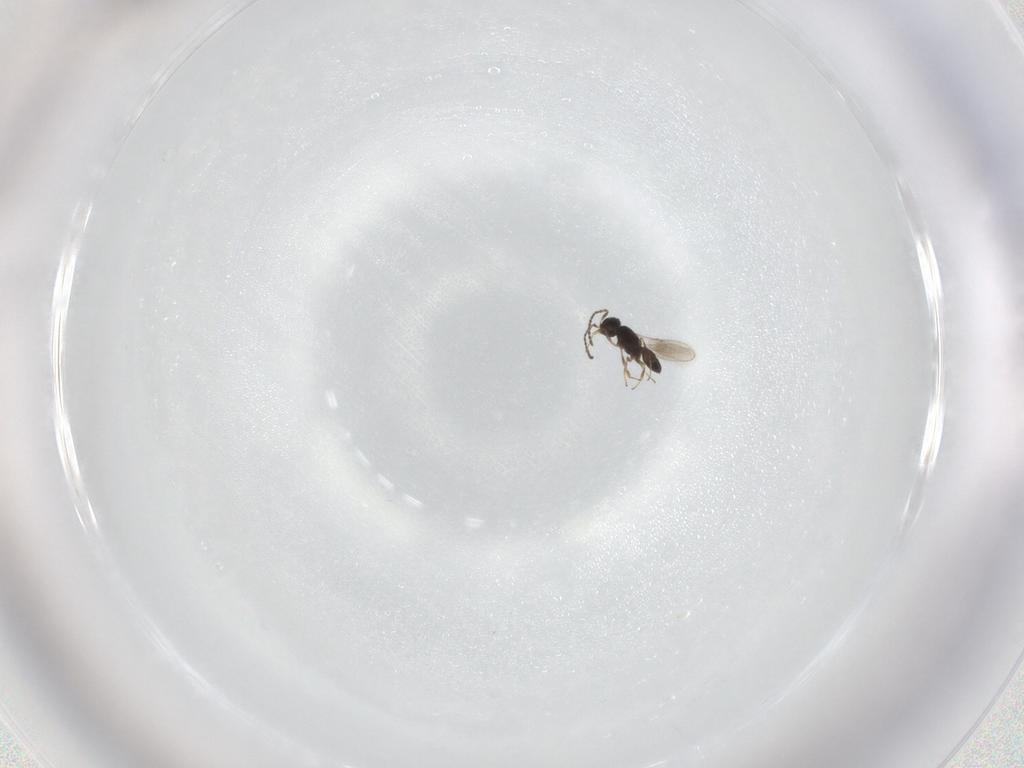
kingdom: Animalia
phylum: Arthropoda
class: Insecta
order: Hymenoptera
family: Scelionidae
